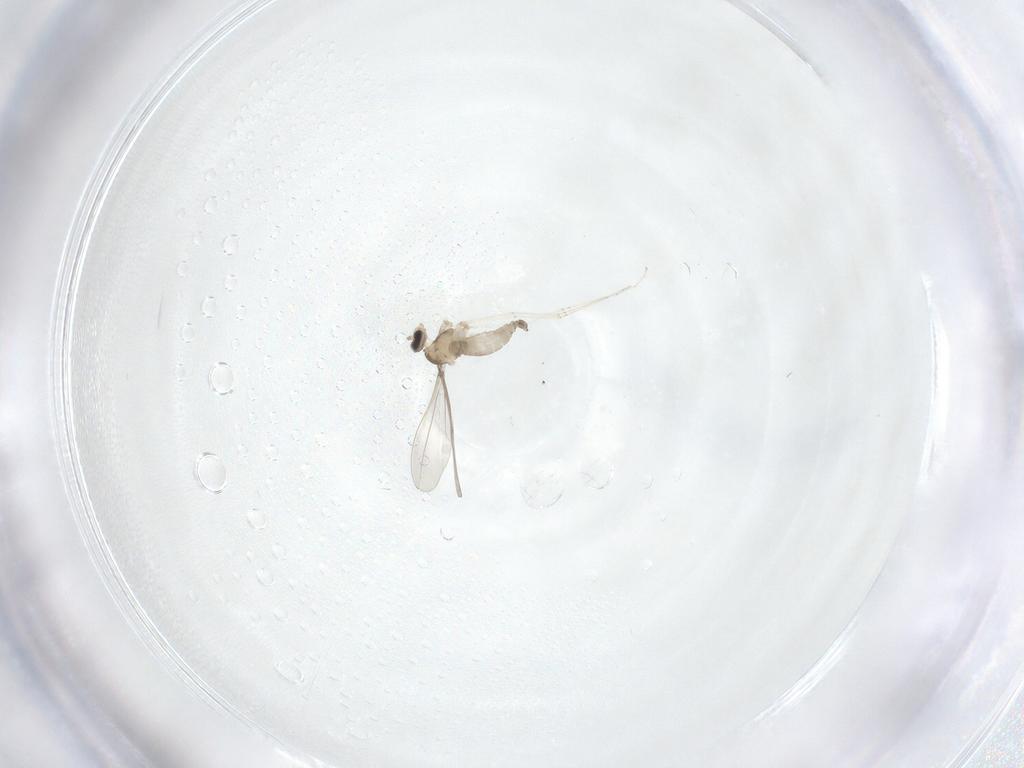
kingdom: Animalia
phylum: Arthropoda
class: Insecta
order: Diptera
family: Cecidomyiidae
